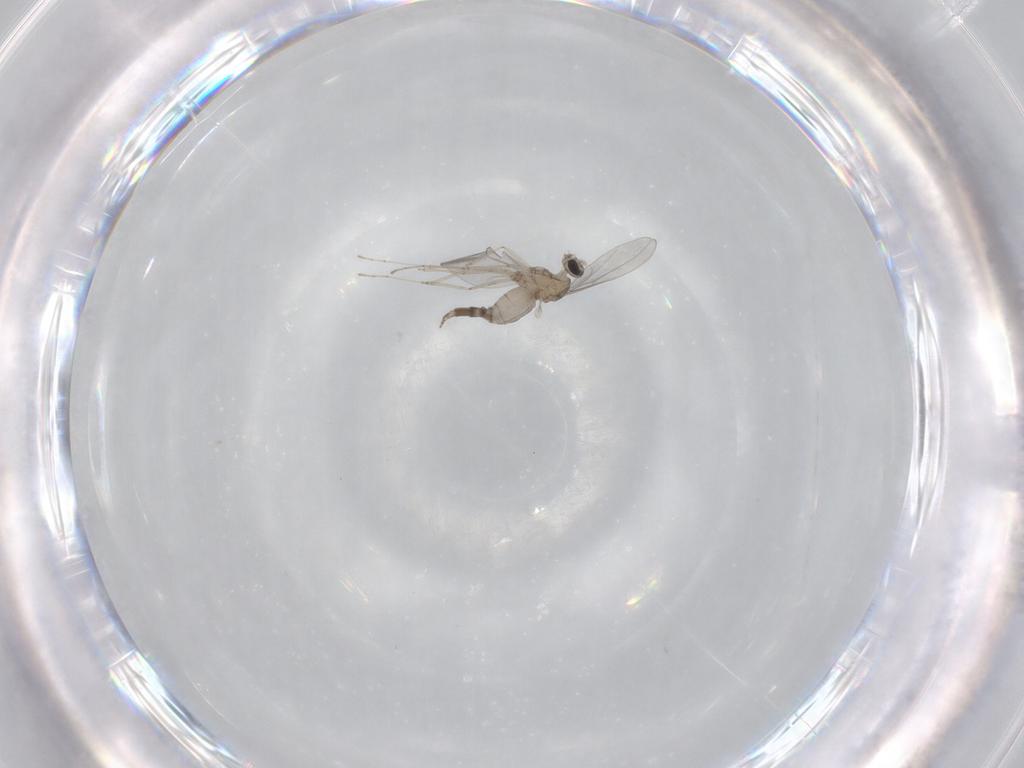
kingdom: Animalia
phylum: Arthropoda
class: Insecta
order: Diptera
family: Cecidomyiidae
